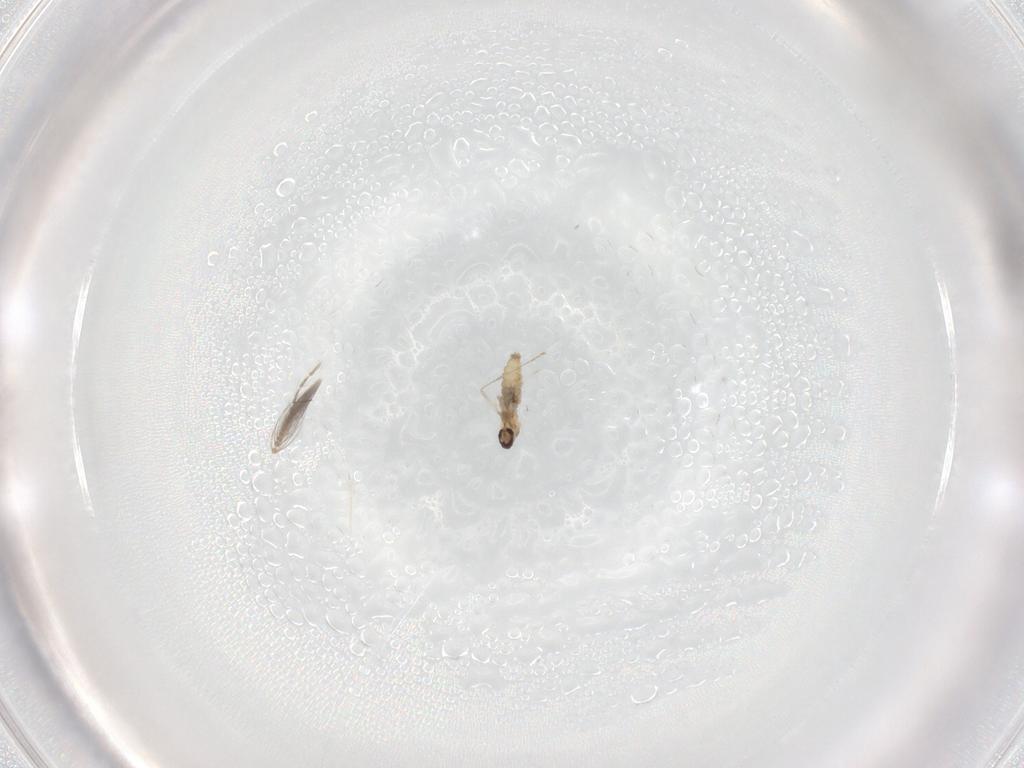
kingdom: Animalia
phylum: Arthropoda
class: Insecta
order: Diptera
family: Cecidomyiidae
